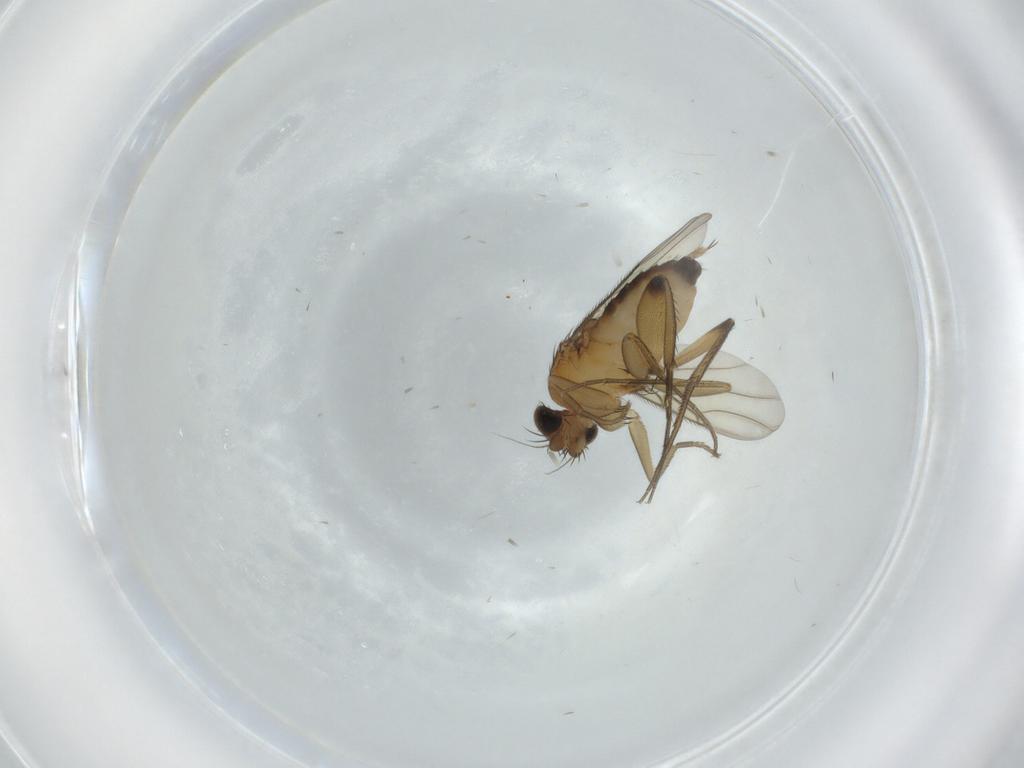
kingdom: Animalia
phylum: Arthropoda
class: Insecta
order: Diptera
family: Phoridae
